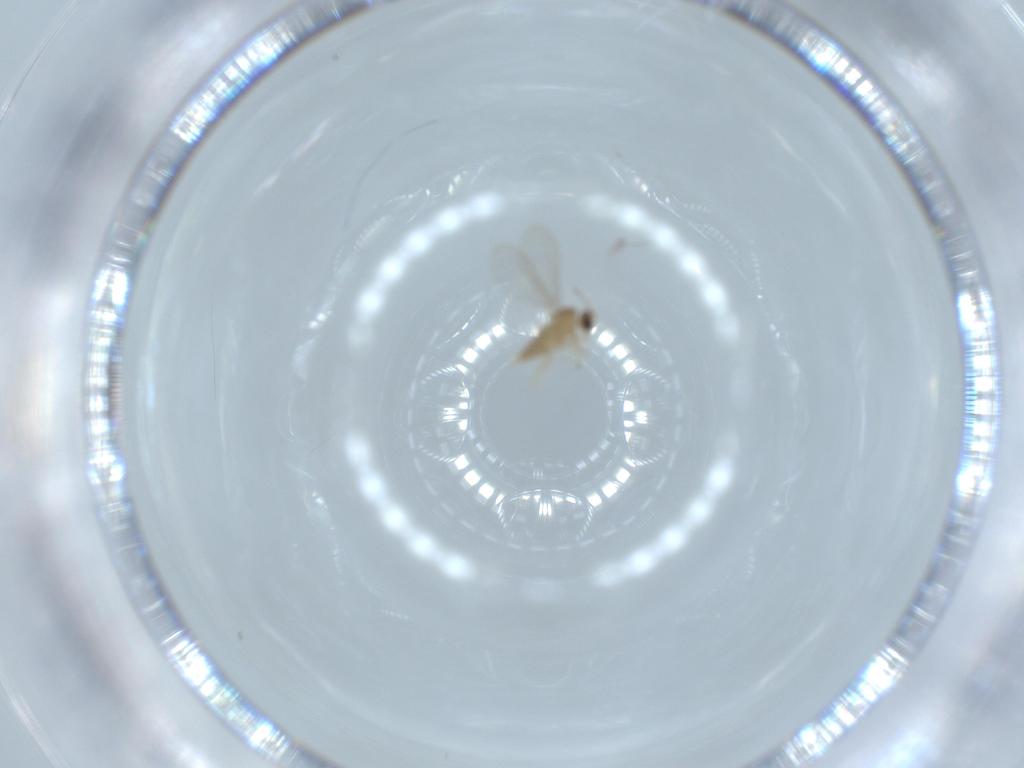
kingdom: Animalia
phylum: Arthropoda
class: Insecta
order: Diptera
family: Cecidomyiidae
